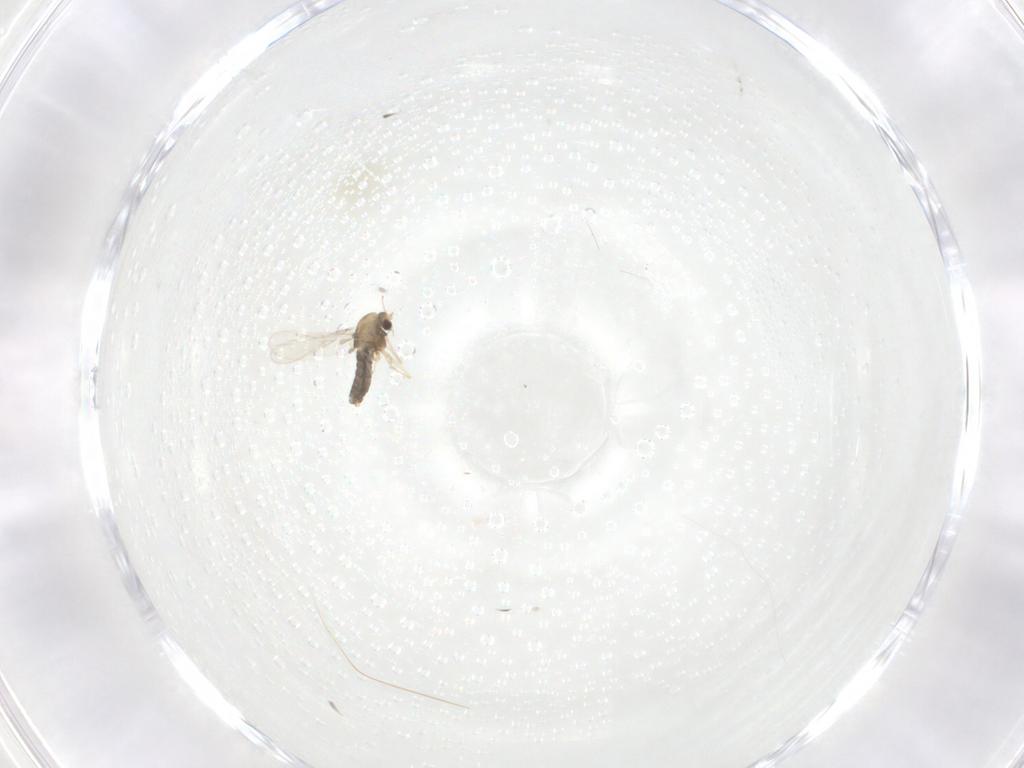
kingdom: Animalia
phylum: Arthropoda
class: Insecta
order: Diptera
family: Chironomidae
